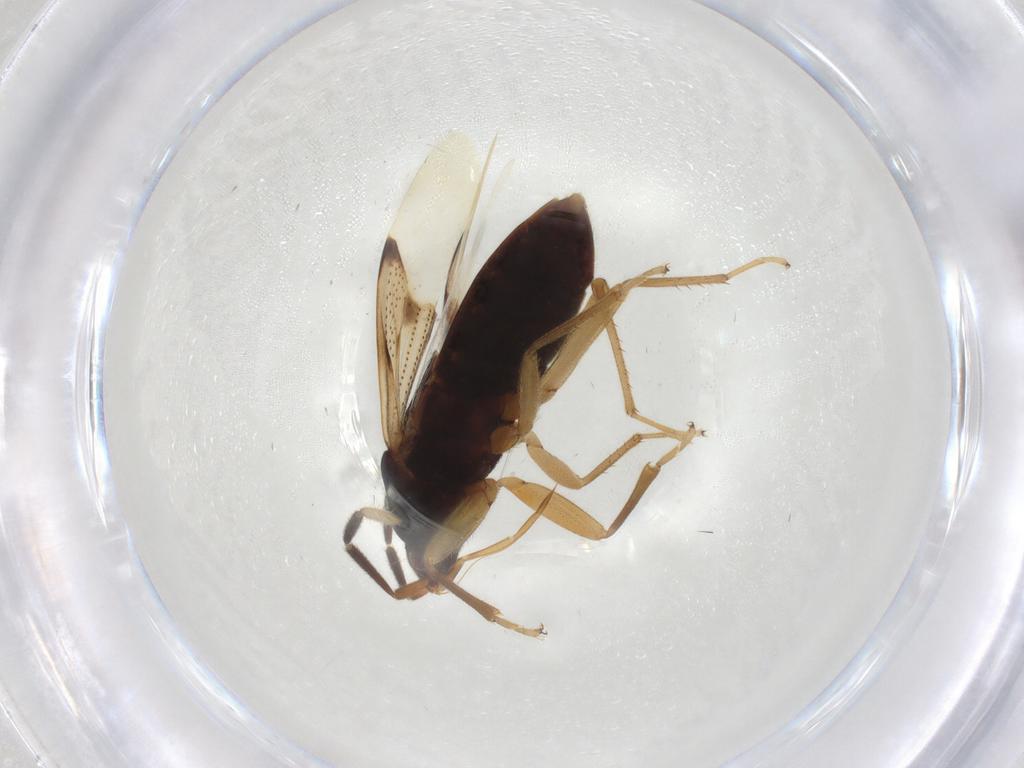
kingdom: Animalia
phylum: Arthropoda
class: Insecta
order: Hemiptera
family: Rhyparochromidae
